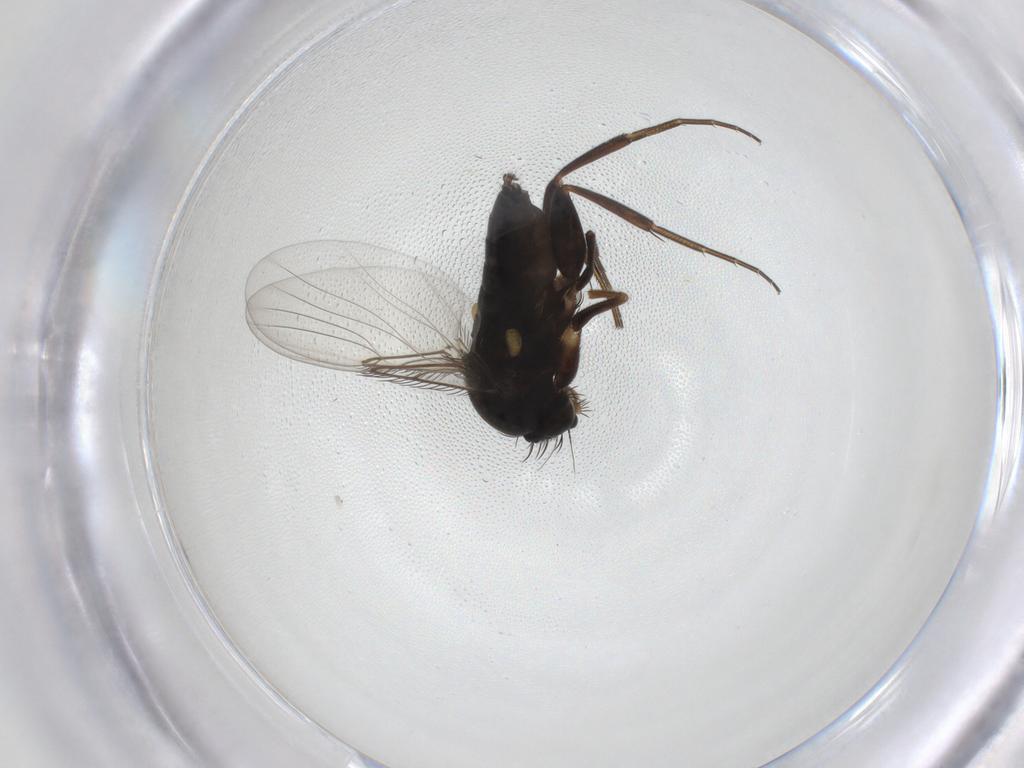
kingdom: Animalia
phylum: Arthropoda
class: Insecta
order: Diptera
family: Phoridae
